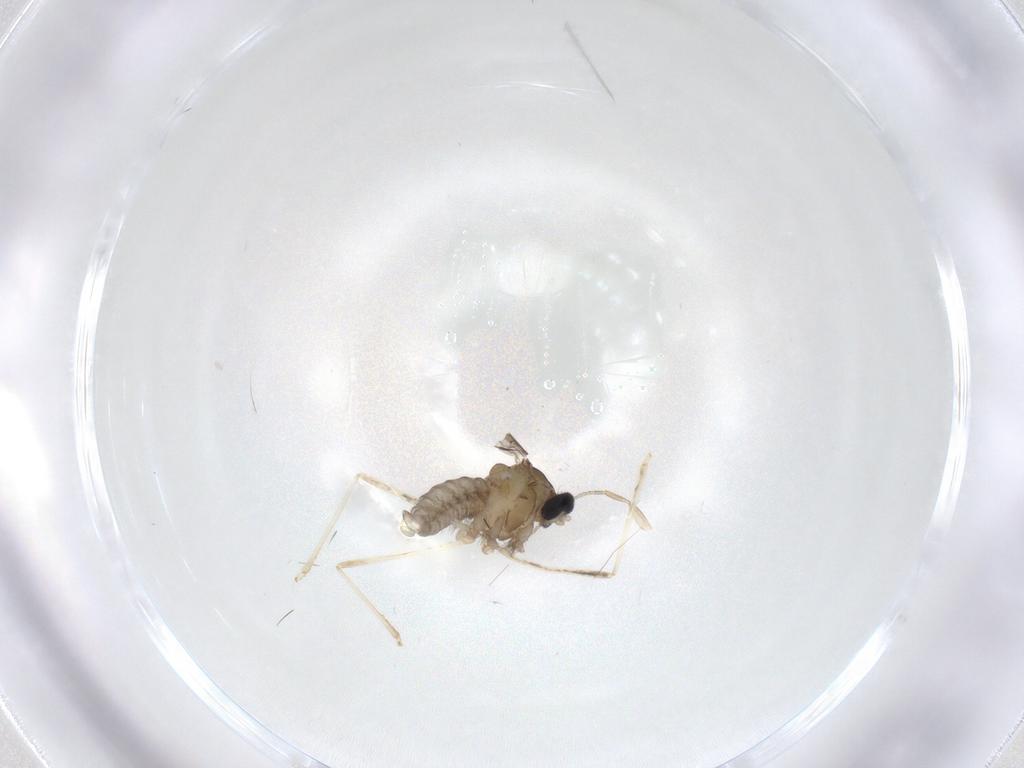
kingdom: Animalia
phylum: Arthropoda
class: Insecta
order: Diptera
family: Cecidomyiidae
